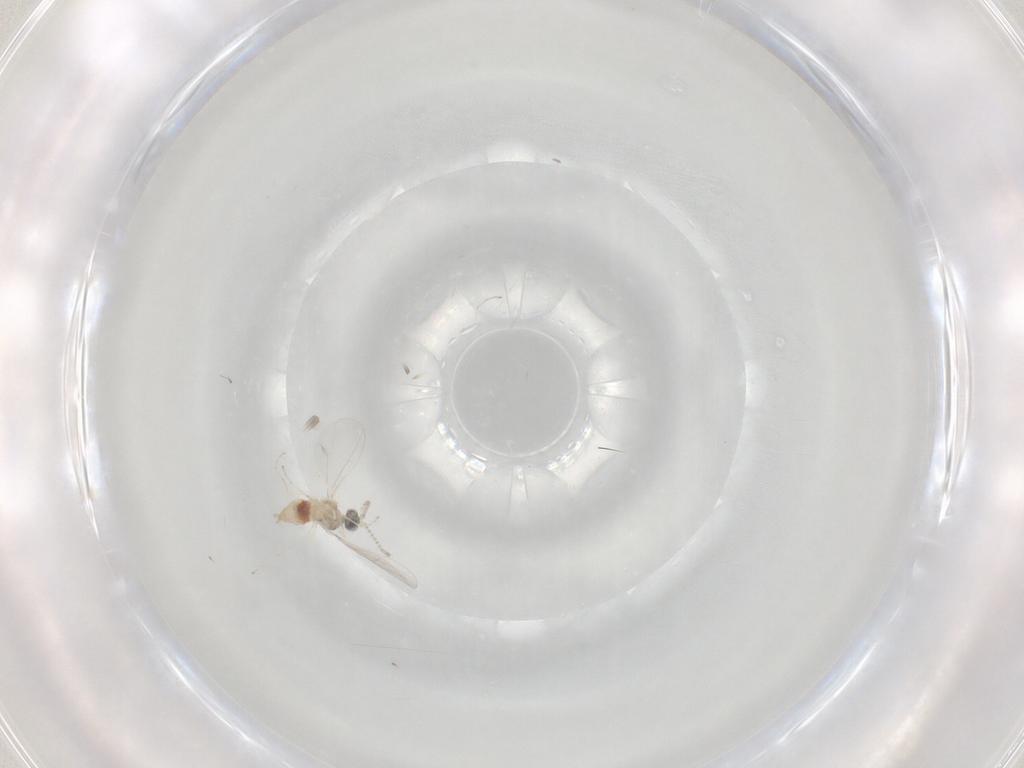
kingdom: Animalia
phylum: Arthropoda
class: Insecta
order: Diptera
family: Cecidomyiidae
